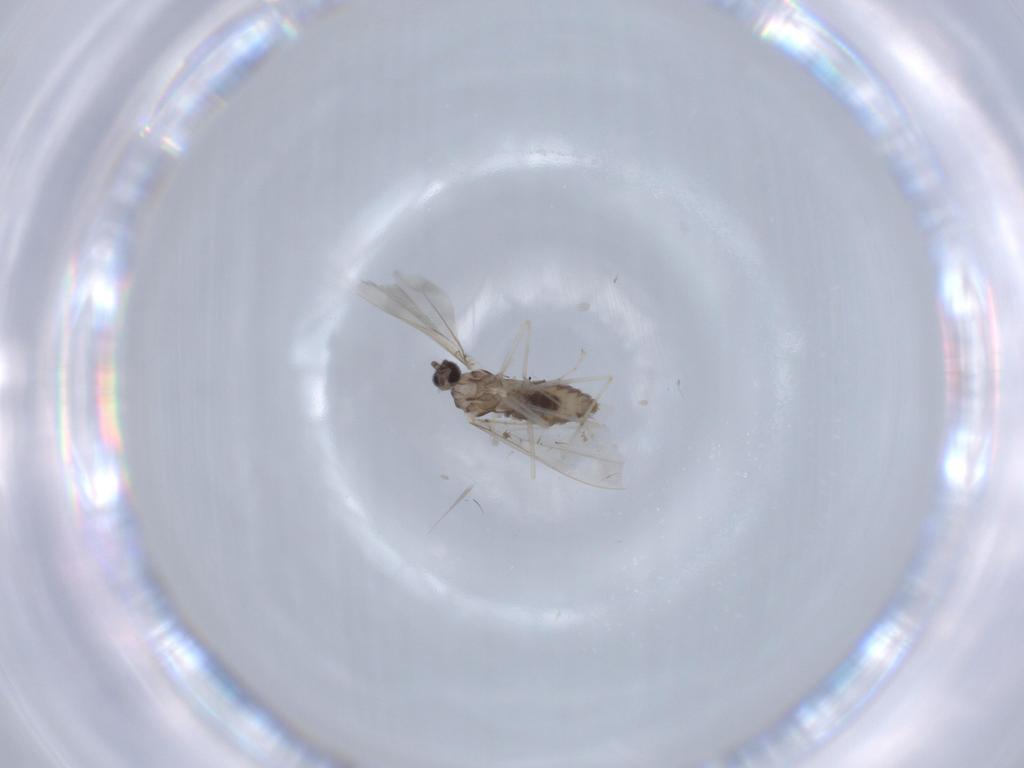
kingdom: Animalia
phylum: Arthropoda
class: Insecta
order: Diptera
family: Cecidomyiidae
